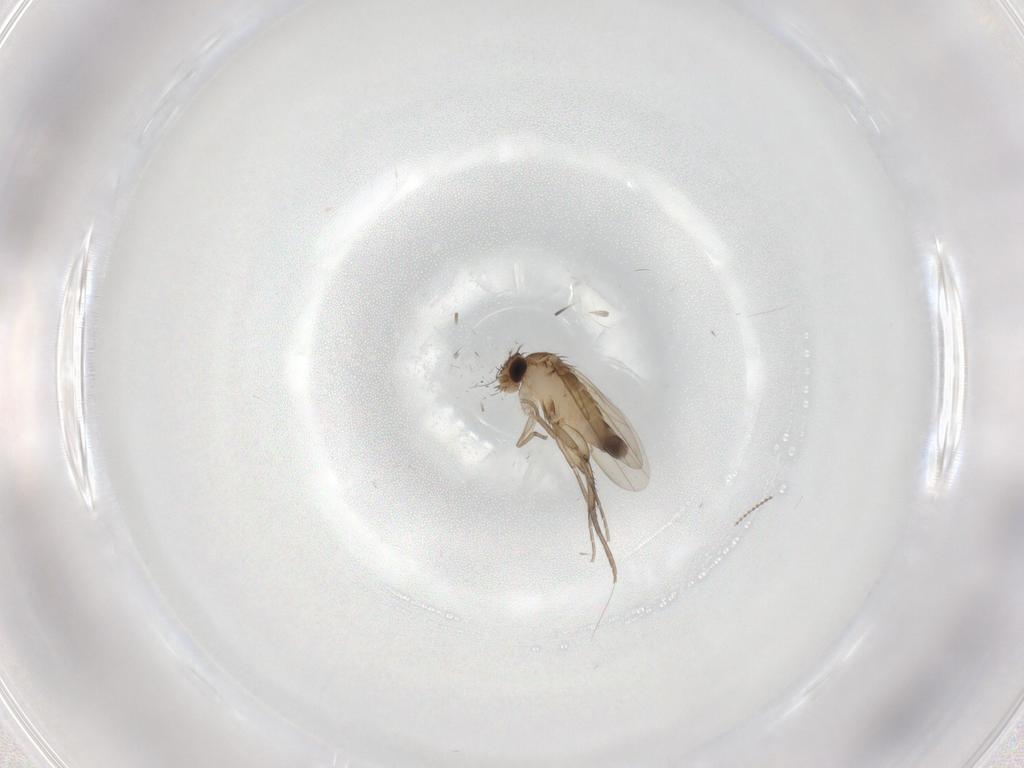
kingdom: Animalia
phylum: Arthropoda
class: Insecta
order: Diptera
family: Phoridae
